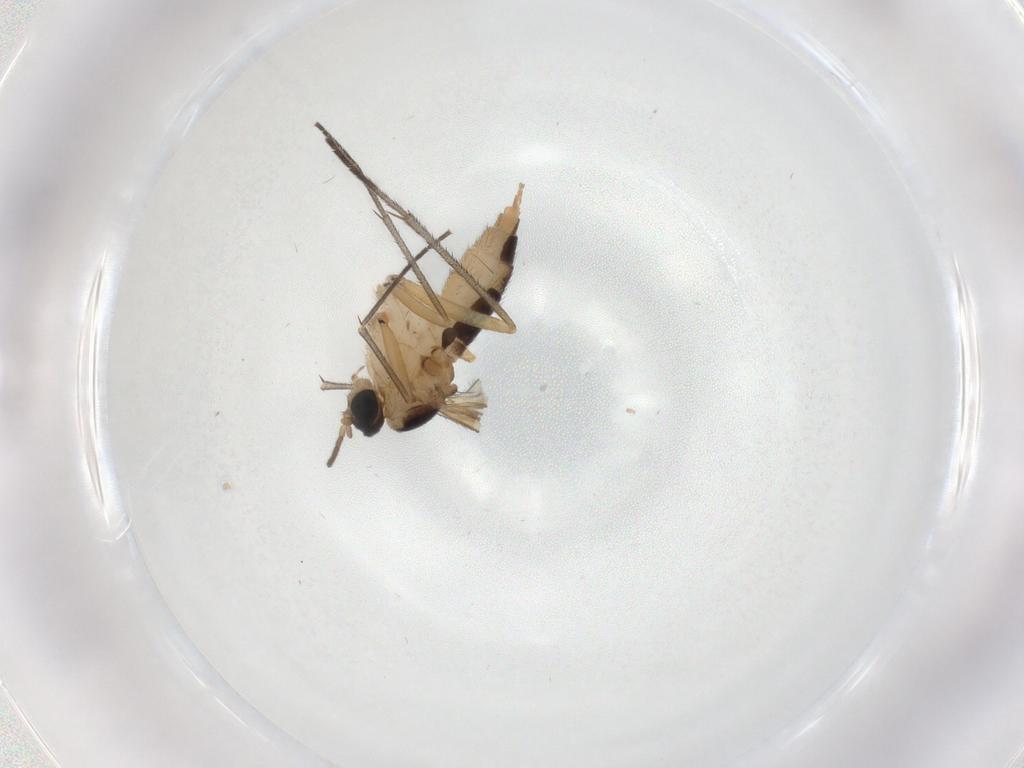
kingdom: Animalia
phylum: Arthropoda
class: Insecta
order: Diptera
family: Sciaridae
